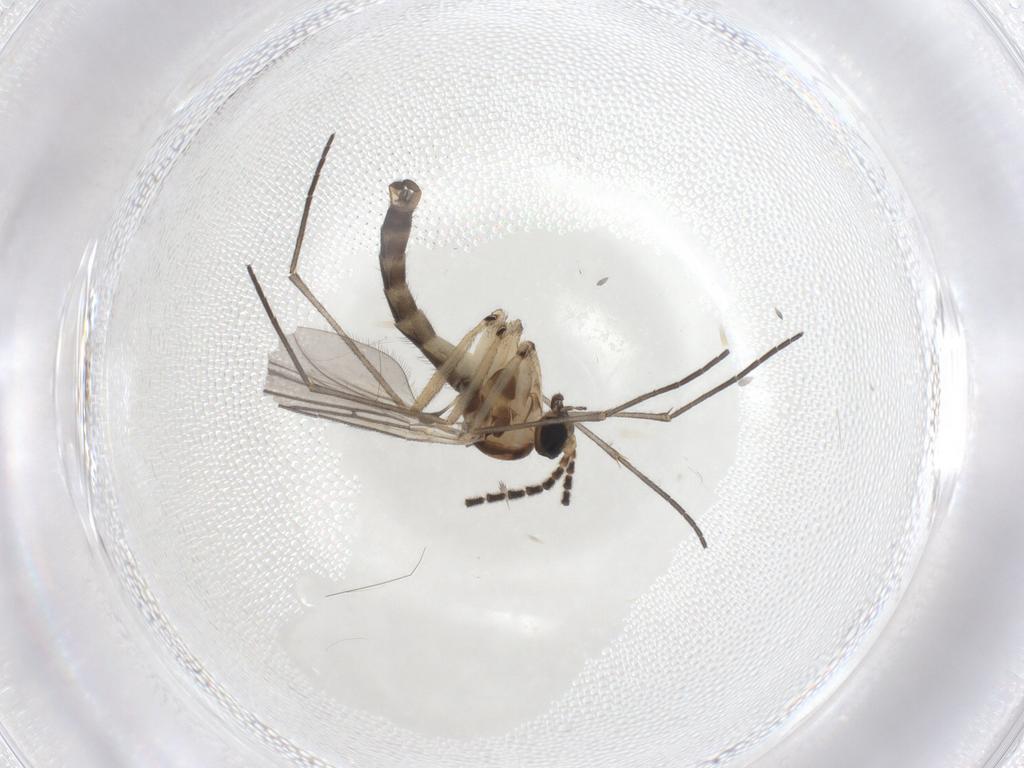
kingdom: Animalia
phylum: Arthropoda
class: Insecta
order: Diptera
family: Sciaridae
